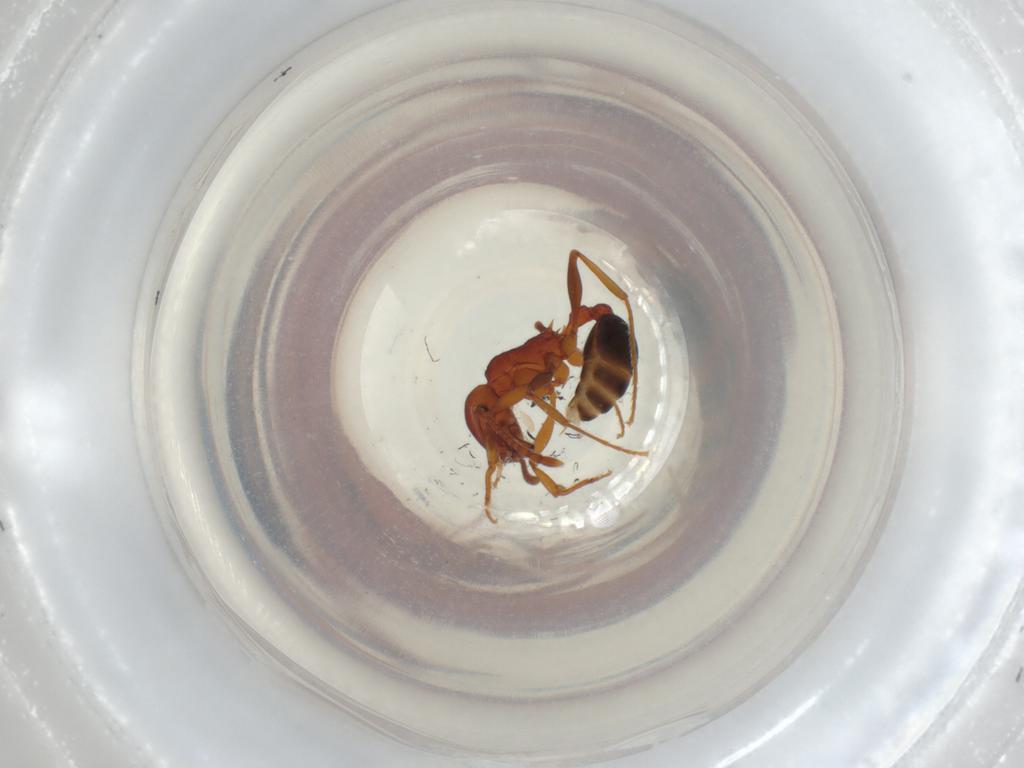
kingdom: Animalia
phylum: Arthropoda
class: Insecta
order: Hymenoptera
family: Formicidae
